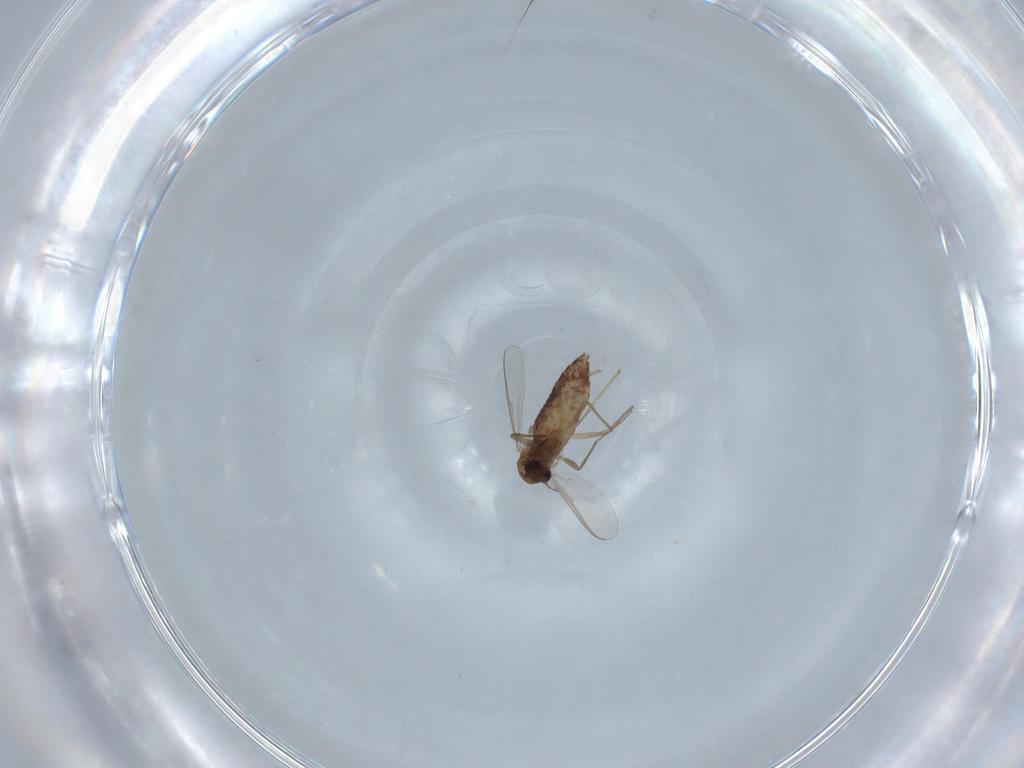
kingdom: Animalia
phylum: Arthropoda
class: Insecta
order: Diptera
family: Chironomidae
